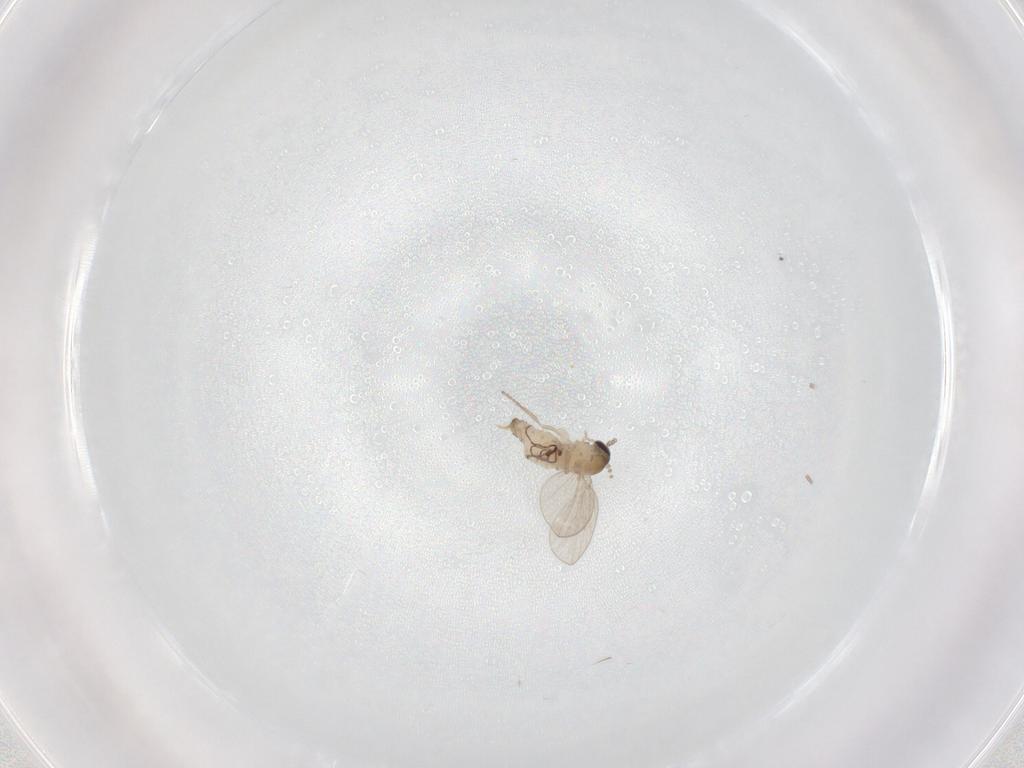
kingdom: Animalia
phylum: Arthropoda
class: Insecta
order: Diptera
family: Psychodidae
